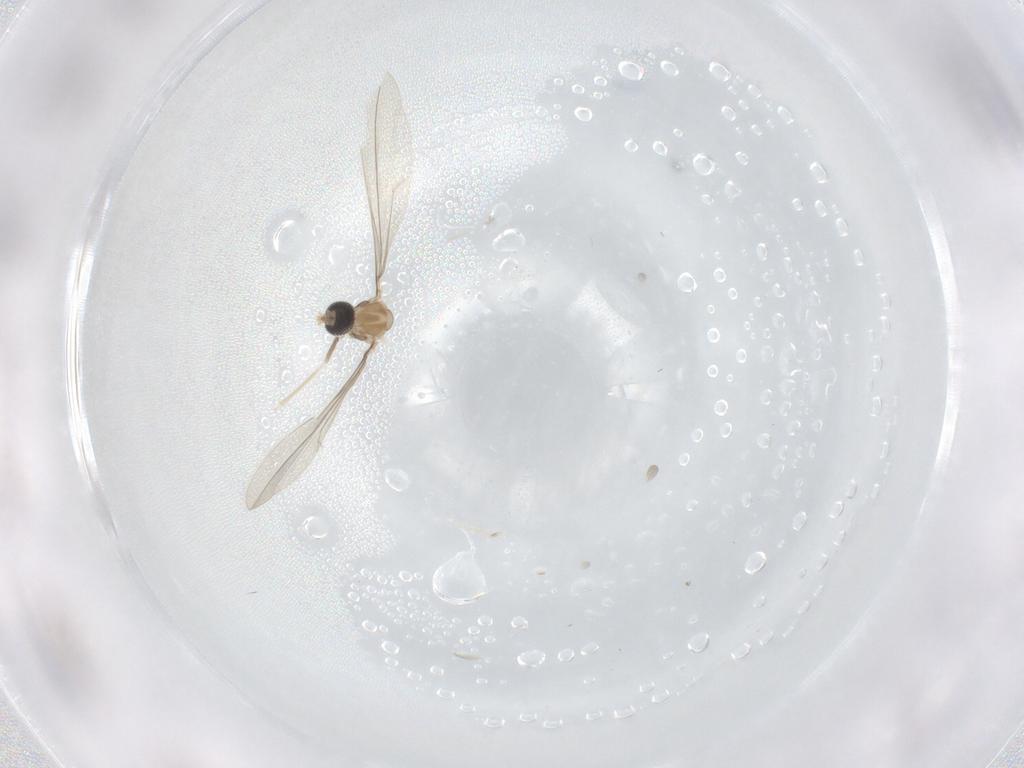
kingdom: Animalia
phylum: Arthropoda
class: Insecta
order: Diptera
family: Cecidomyiidae
